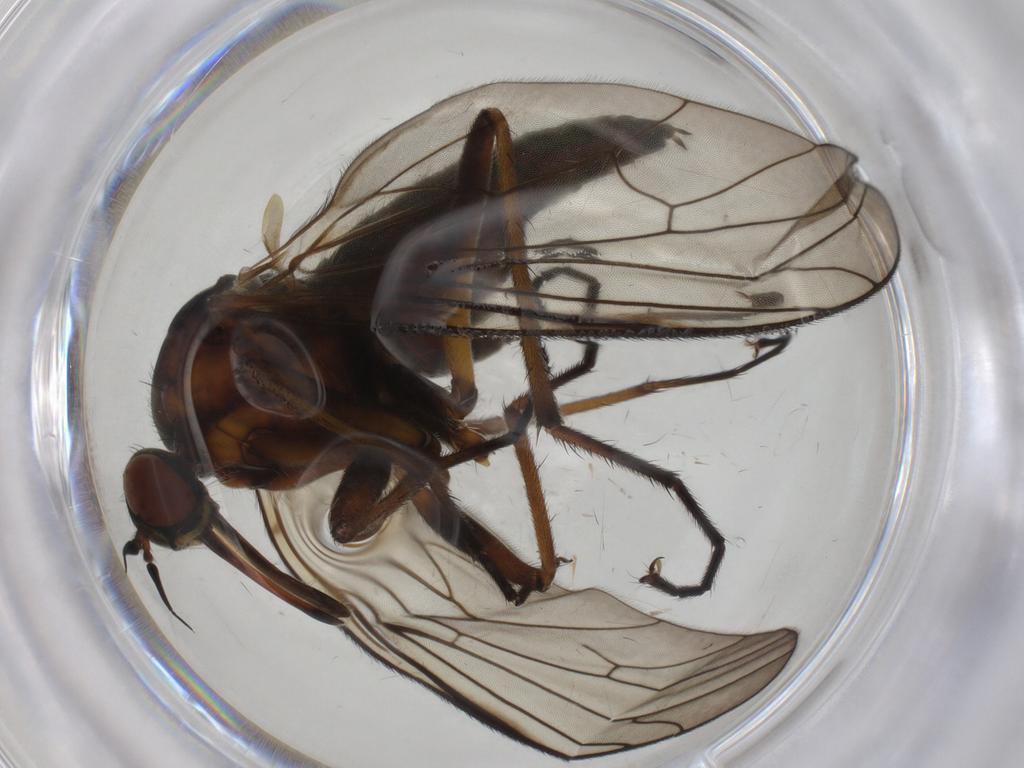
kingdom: Animalia
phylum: Arthropoda
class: Insecta
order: Diptera
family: Empididae
